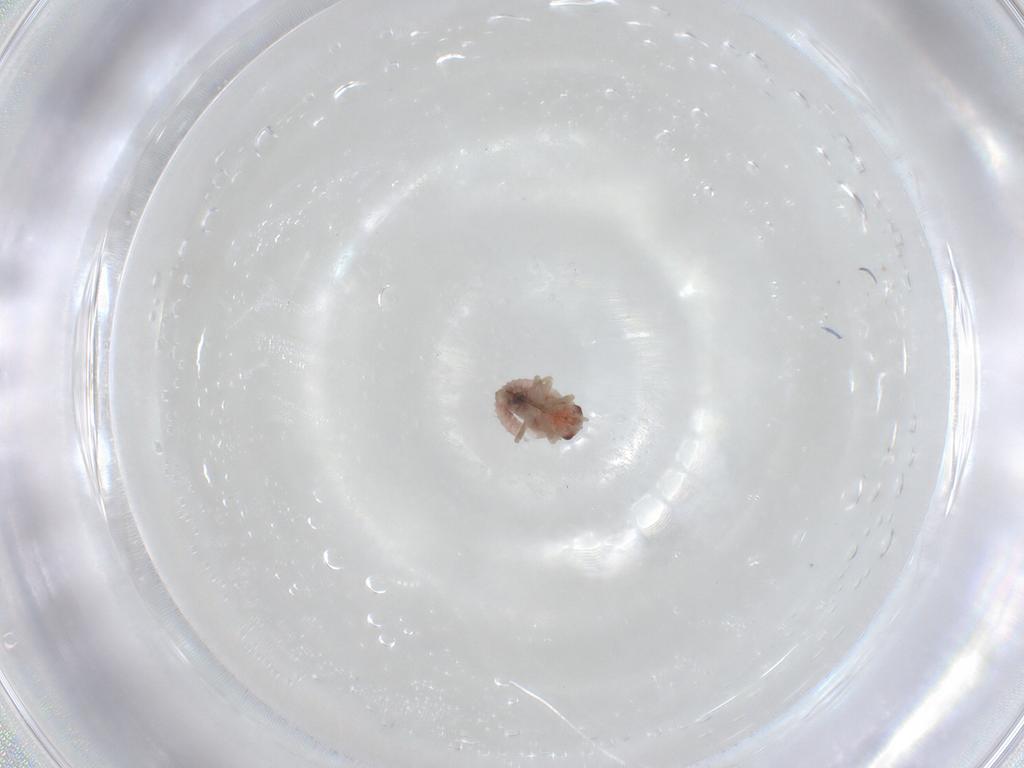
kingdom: Animalia
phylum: Arthropoda
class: Insecta
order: Hemiptera
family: Miridae
